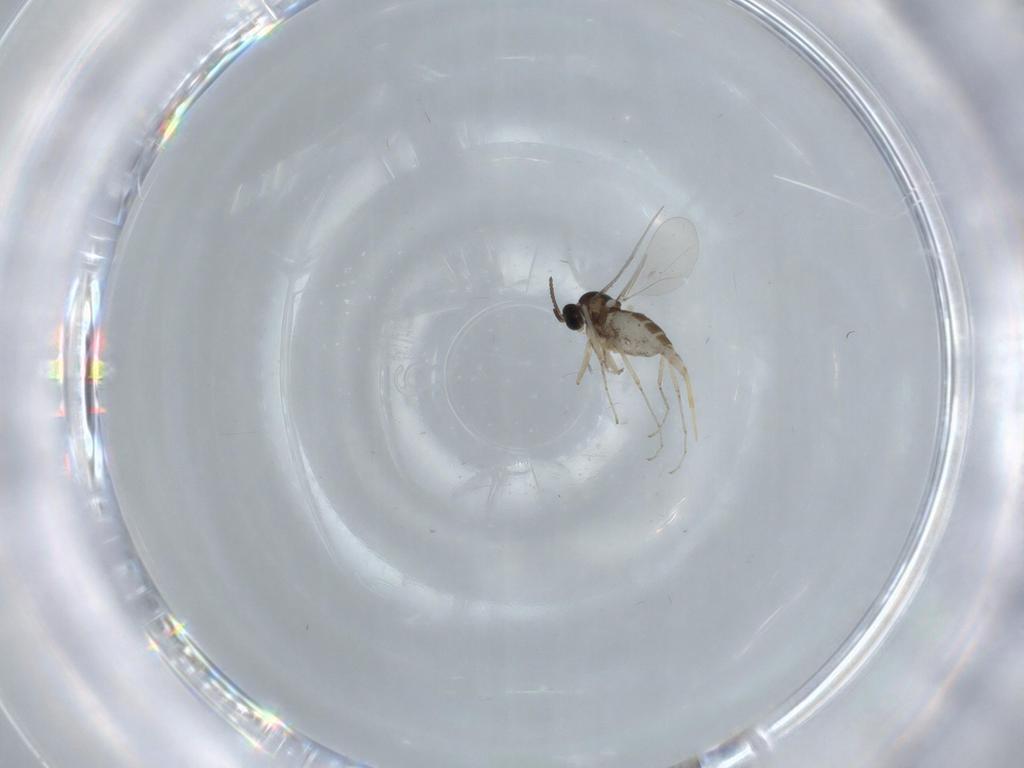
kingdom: Animalia
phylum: Arthropoda
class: Insecta
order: Diptera
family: Cecidomyiidae
